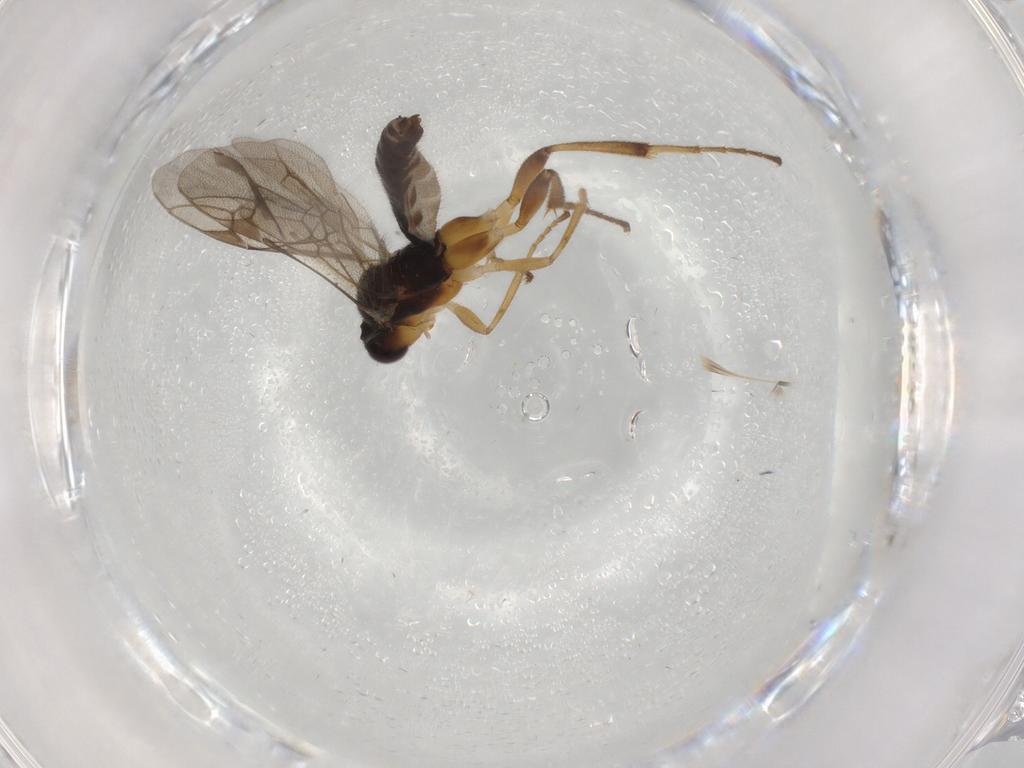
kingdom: Animalia
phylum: Arthropoda
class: Insecta
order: Hymenoptera
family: Ichneumonidae
